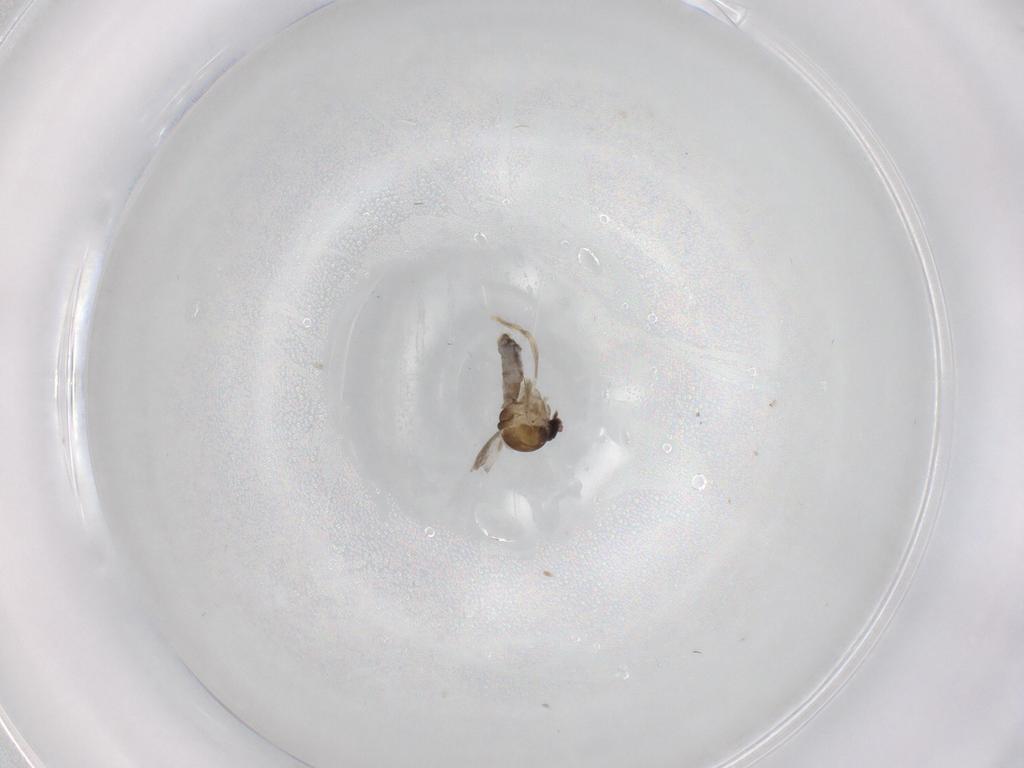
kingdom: Animalia
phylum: Arthropoda
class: Insecta
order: Diptera
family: Ceratopogonidae
